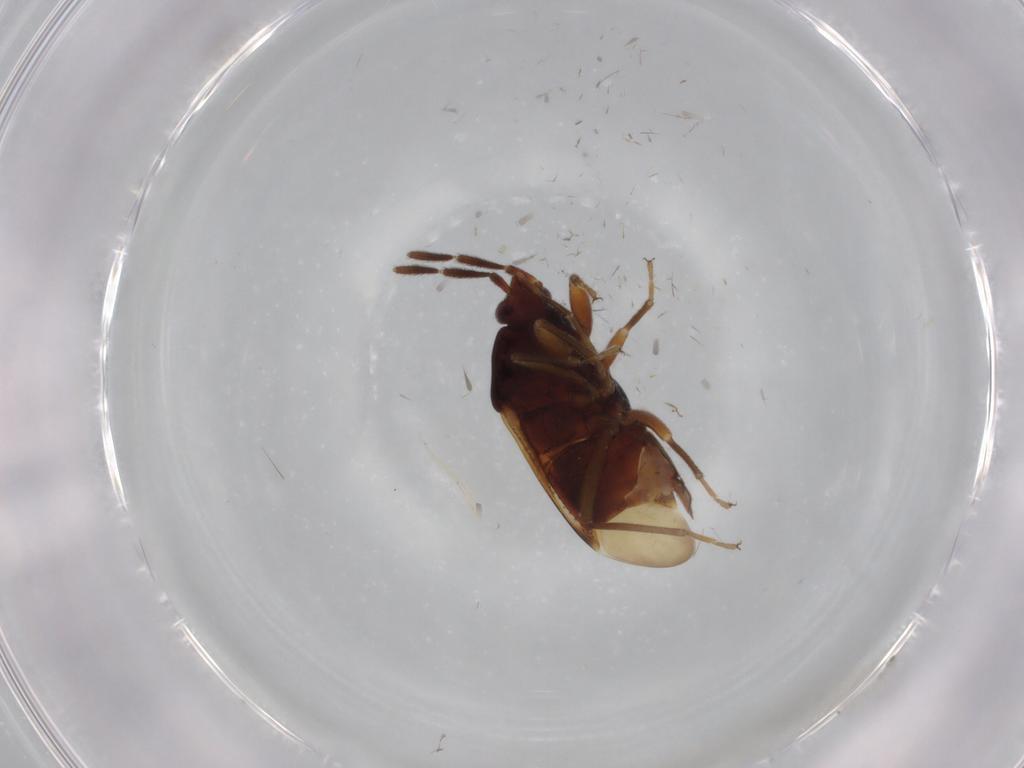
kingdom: Animalia
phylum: Arthropoda
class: Insecta
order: Hemiptera
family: Rhyparochromidae
